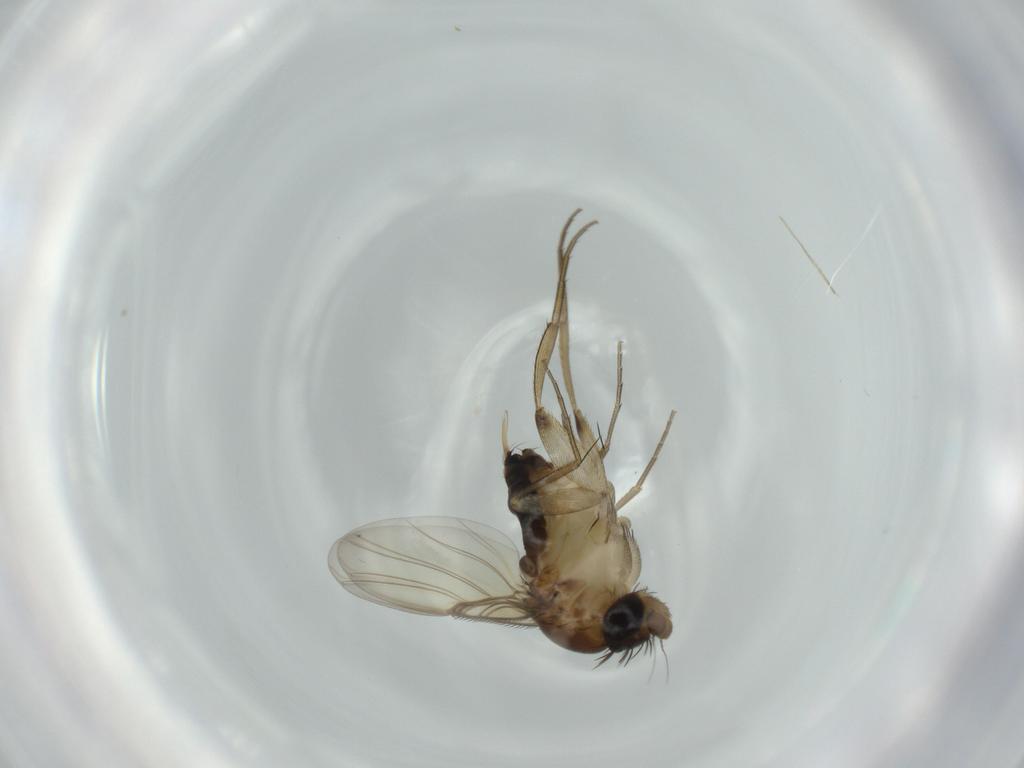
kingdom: Animalia
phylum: Arthropoda
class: Insecta
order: Diptera
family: Phoridae
